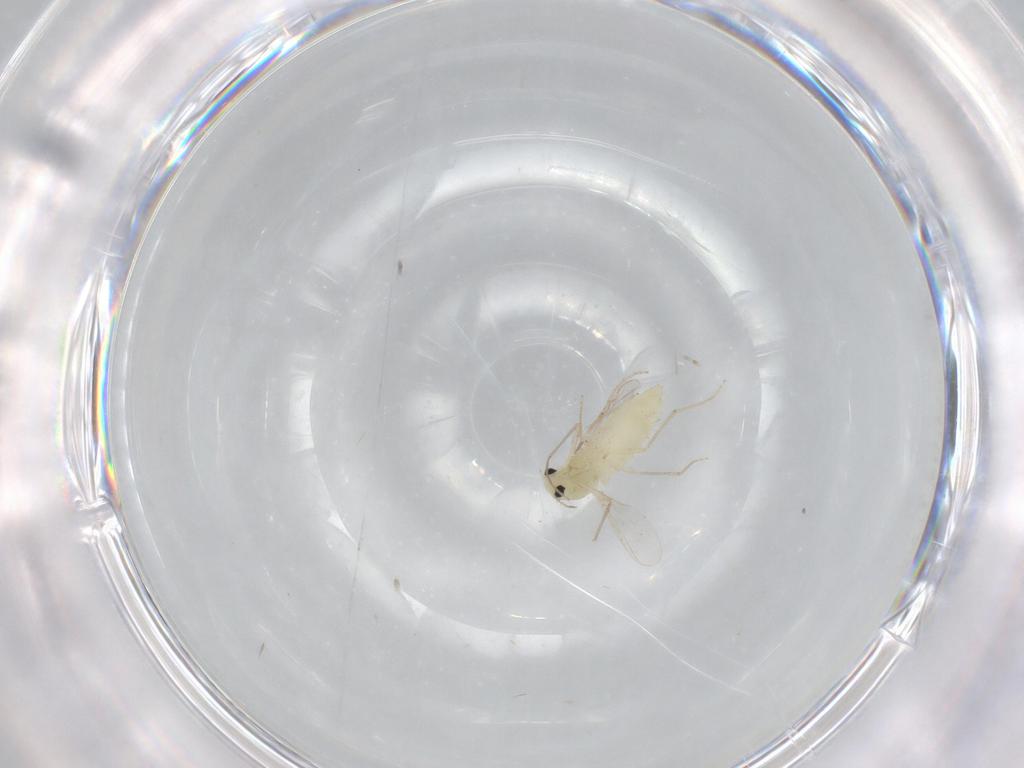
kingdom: Animalia
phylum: Arthropoda
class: Insecta
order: Diptera
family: Chironomidae
